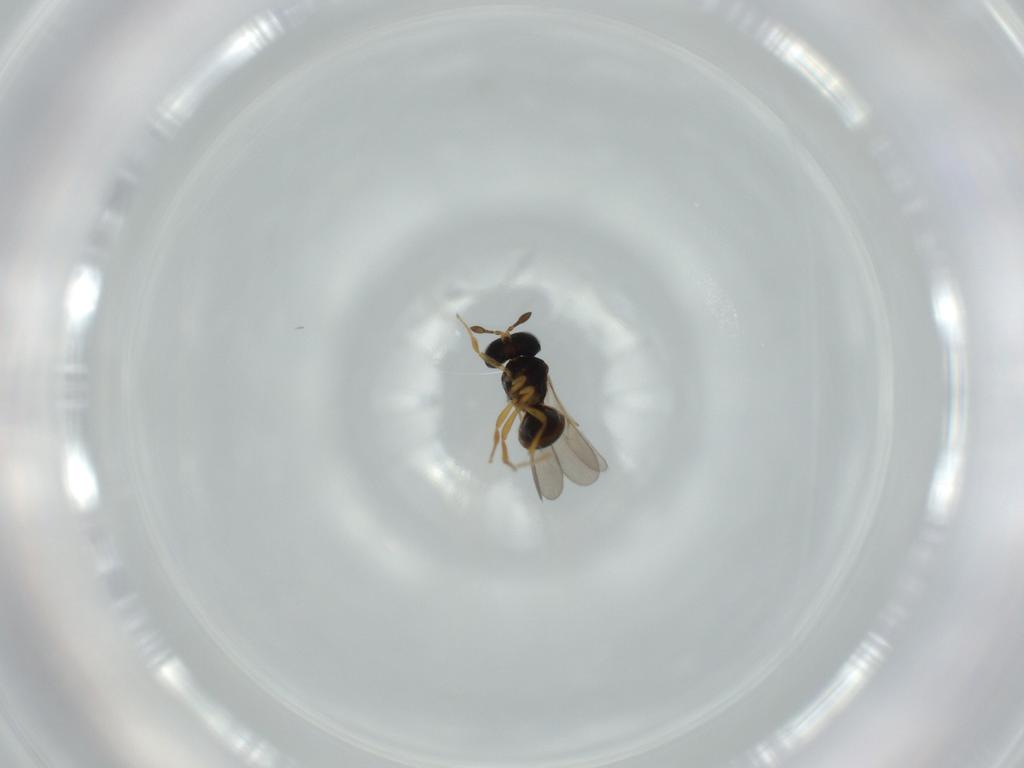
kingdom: Animalia
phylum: Arthropoda
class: Insecta
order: Hymenoptera
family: Scelionidae
